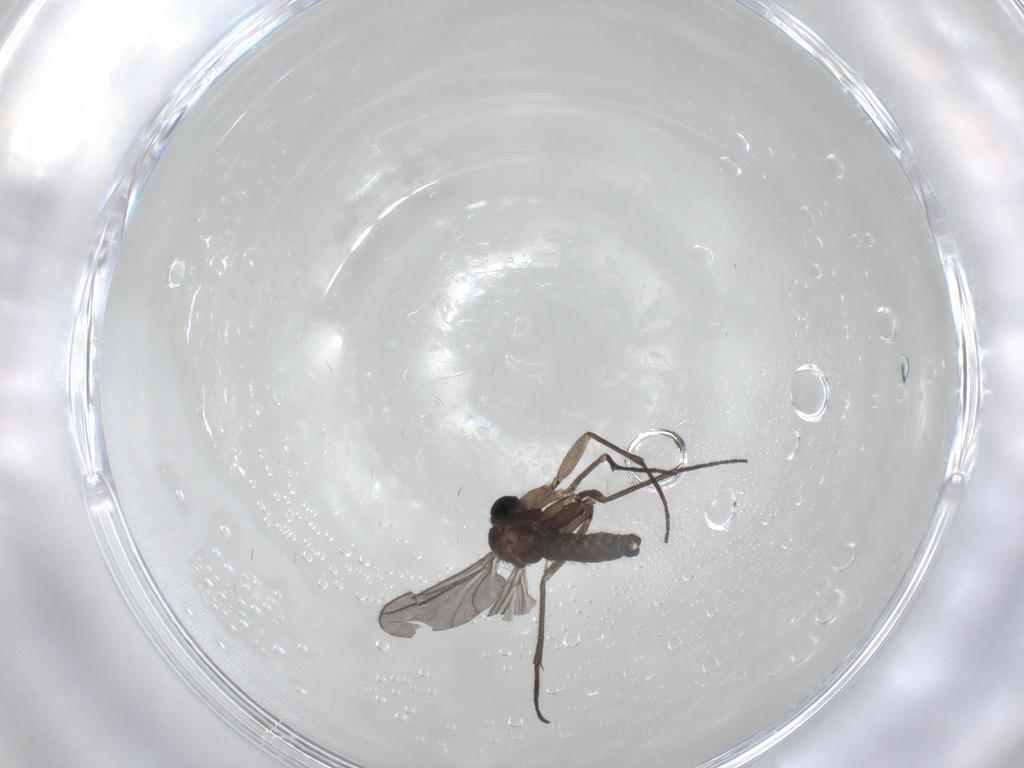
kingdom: Animalia
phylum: Arthropoda
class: Insecta
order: Diptera
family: Sciaridae
